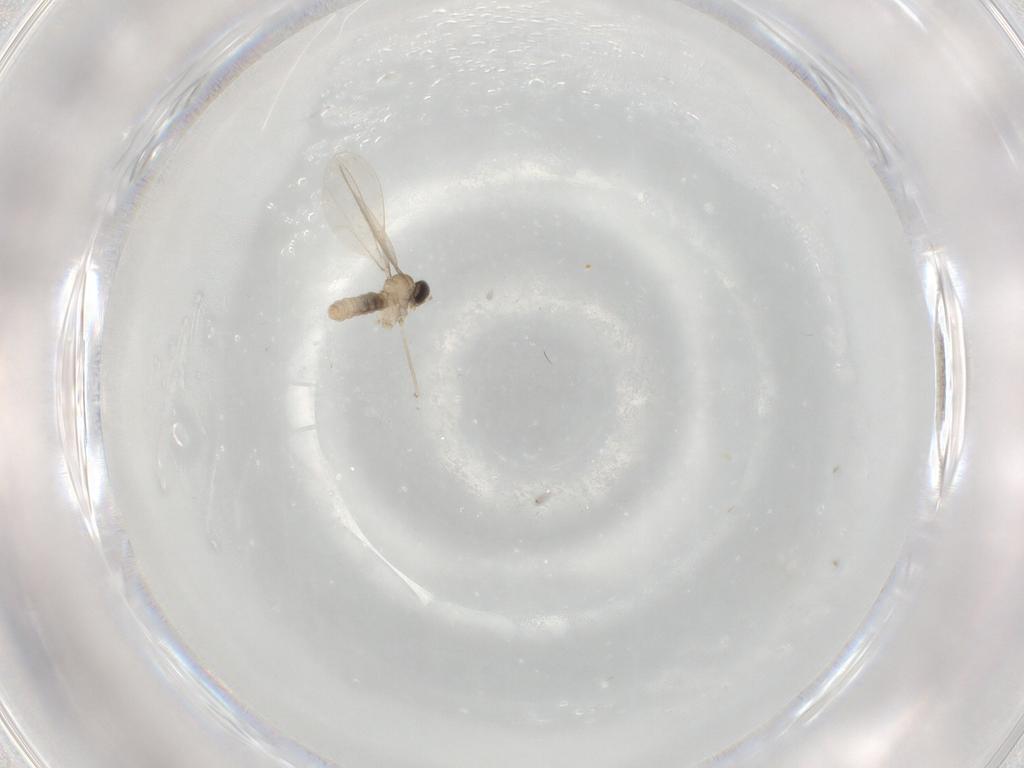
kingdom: Animalia
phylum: Arthropoda
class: Insecta
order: Diptera
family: Cecidomyiidae
